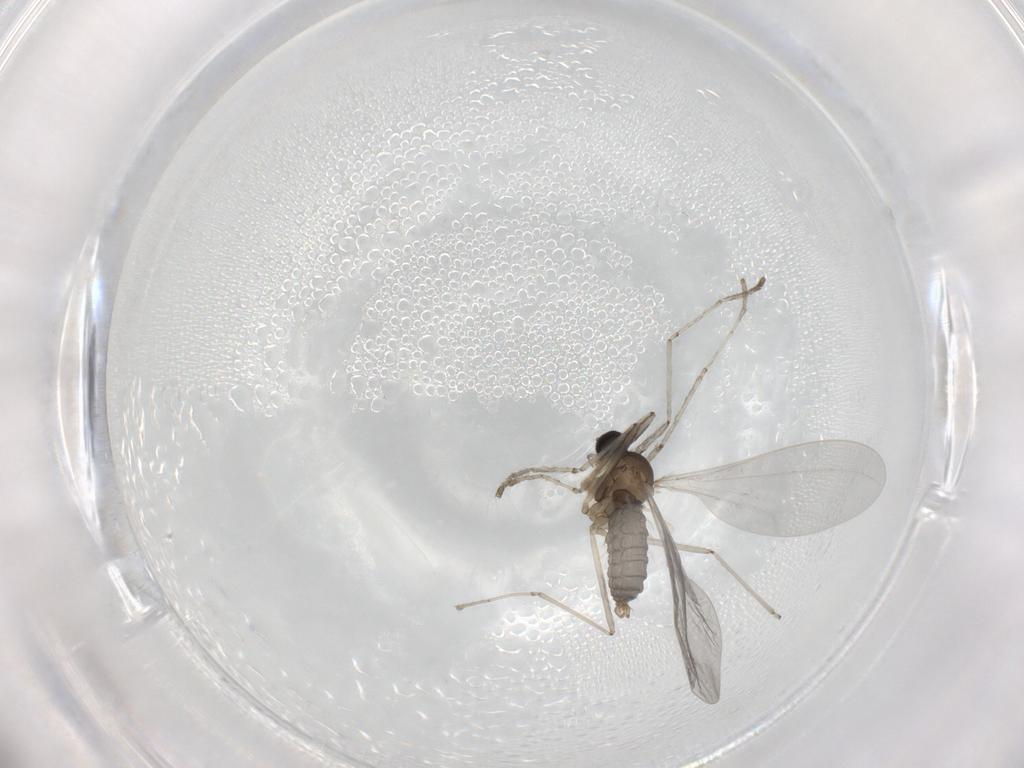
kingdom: Animalia
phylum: Arthropoda
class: Insecta
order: Diptera
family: Cecidomyiidae
